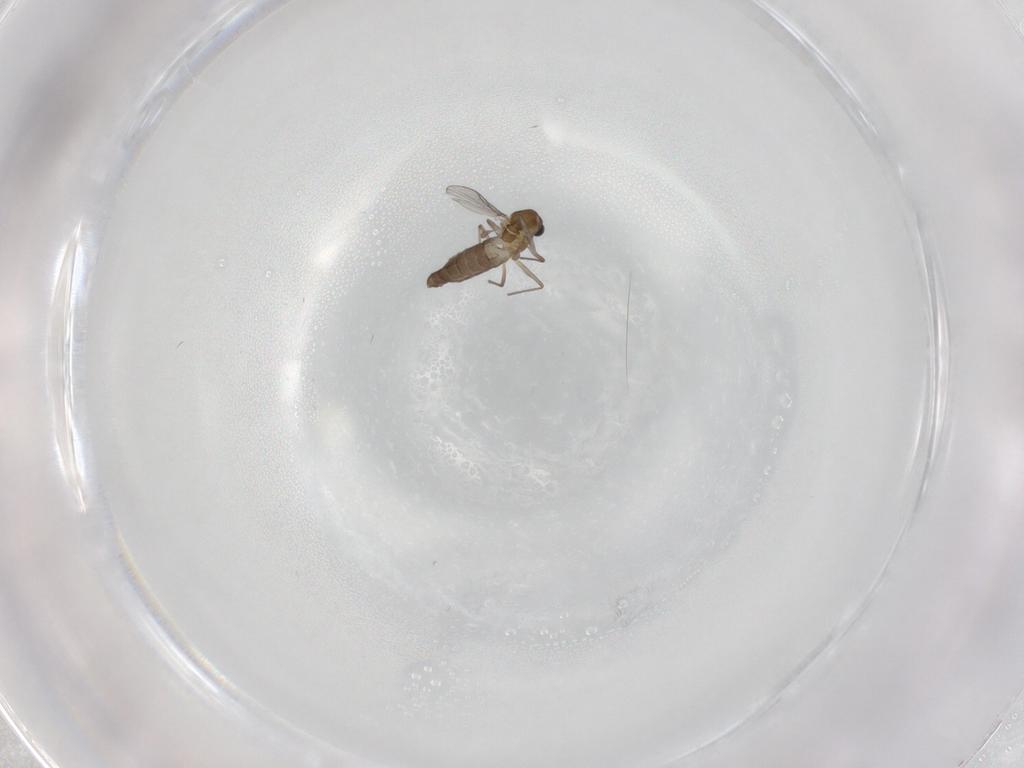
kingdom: Animalia
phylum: Arthropoda
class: Insecta
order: Diptera
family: Chironomidae
